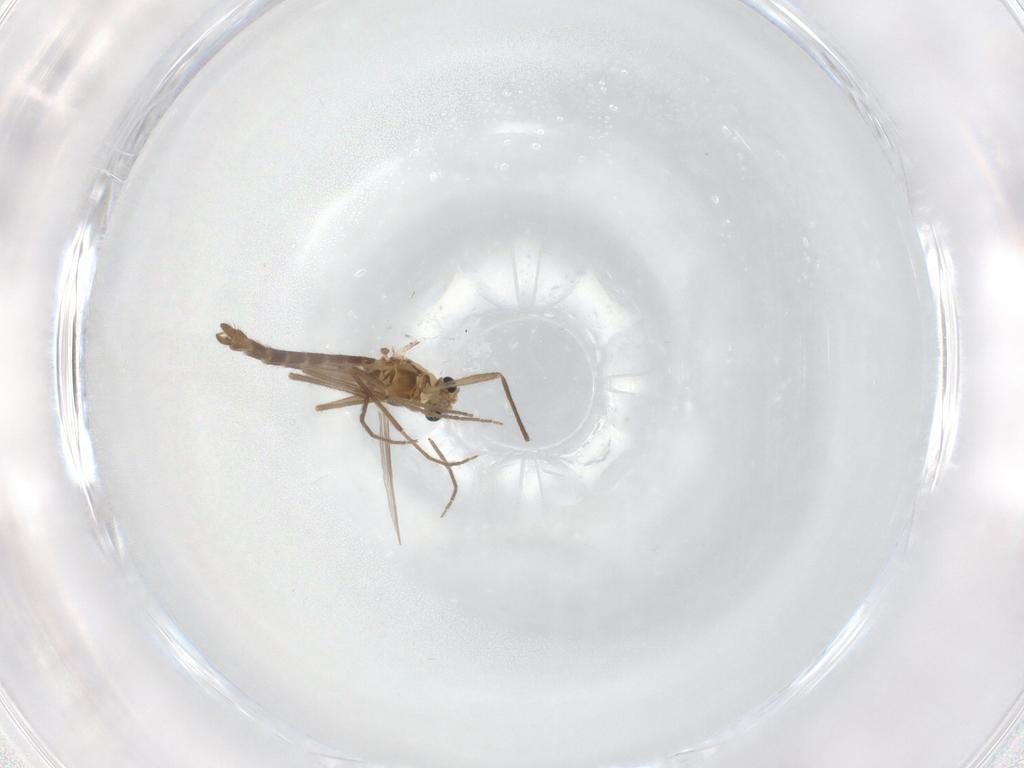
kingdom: Animalia
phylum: Arthropoda
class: Insecta
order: Diptera
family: Chironomidae
